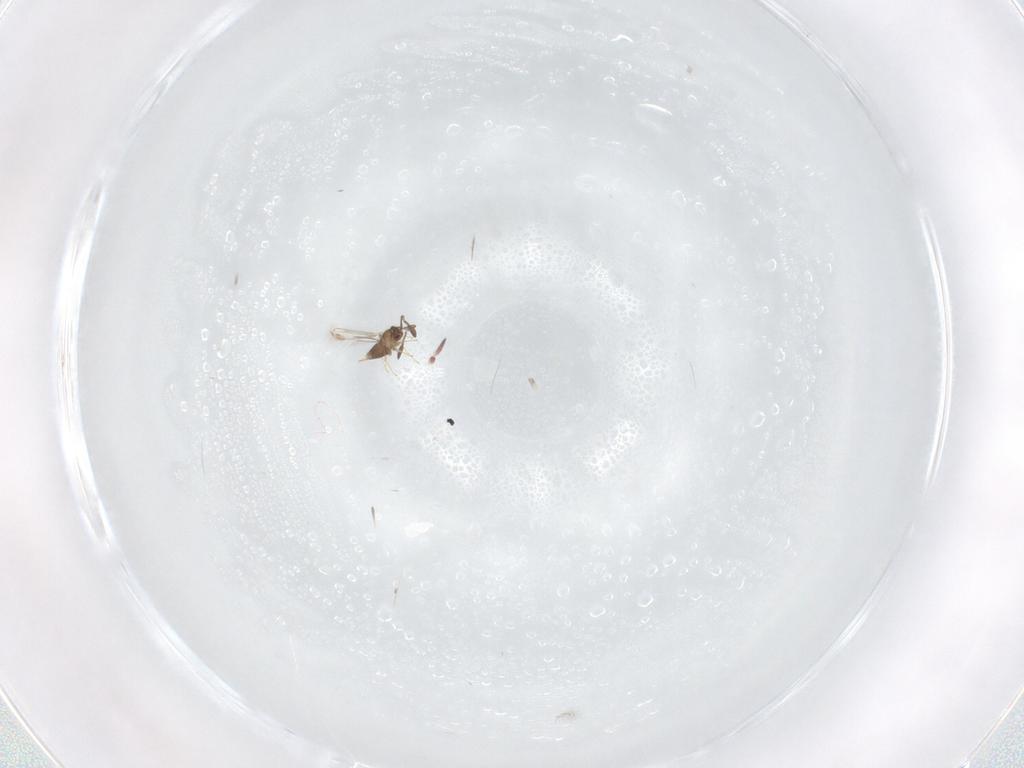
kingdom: Animalia
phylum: Arthropoda
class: Insecta
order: Hymenoptera
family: Mymaridae
